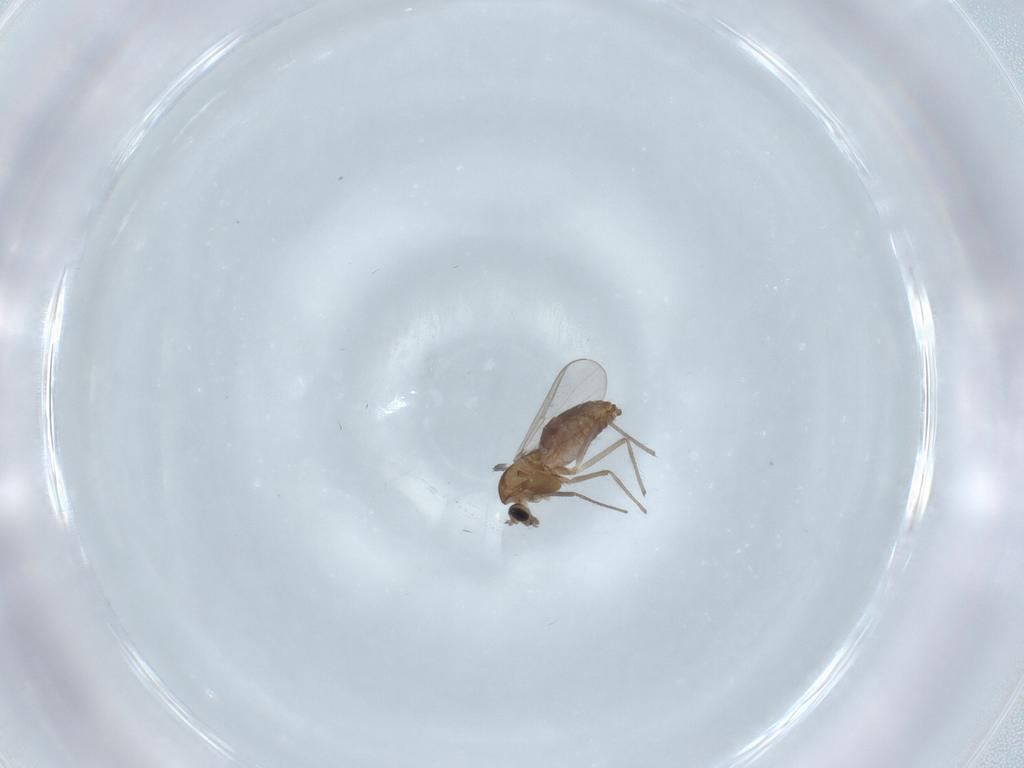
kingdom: Animalia
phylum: Arthropoda
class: Insecta
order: Diptera
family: Chironomidae
